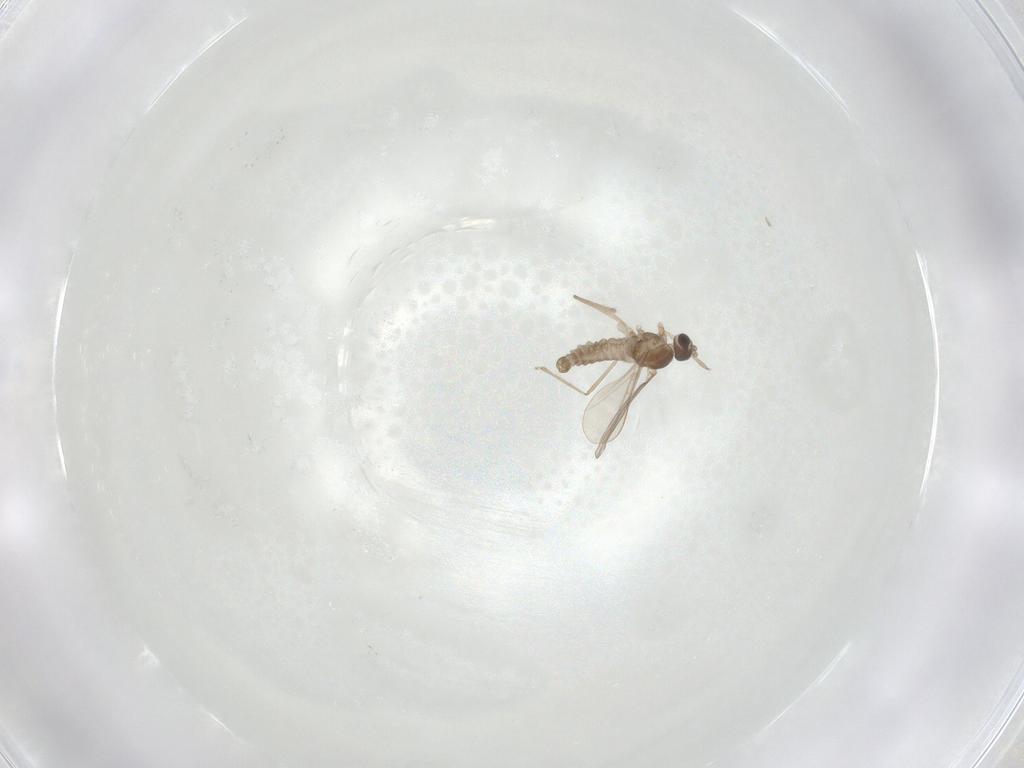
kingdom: Animalia
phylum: Arthropoda
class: Insecta
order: Diptera
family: Cecidomyiidae
